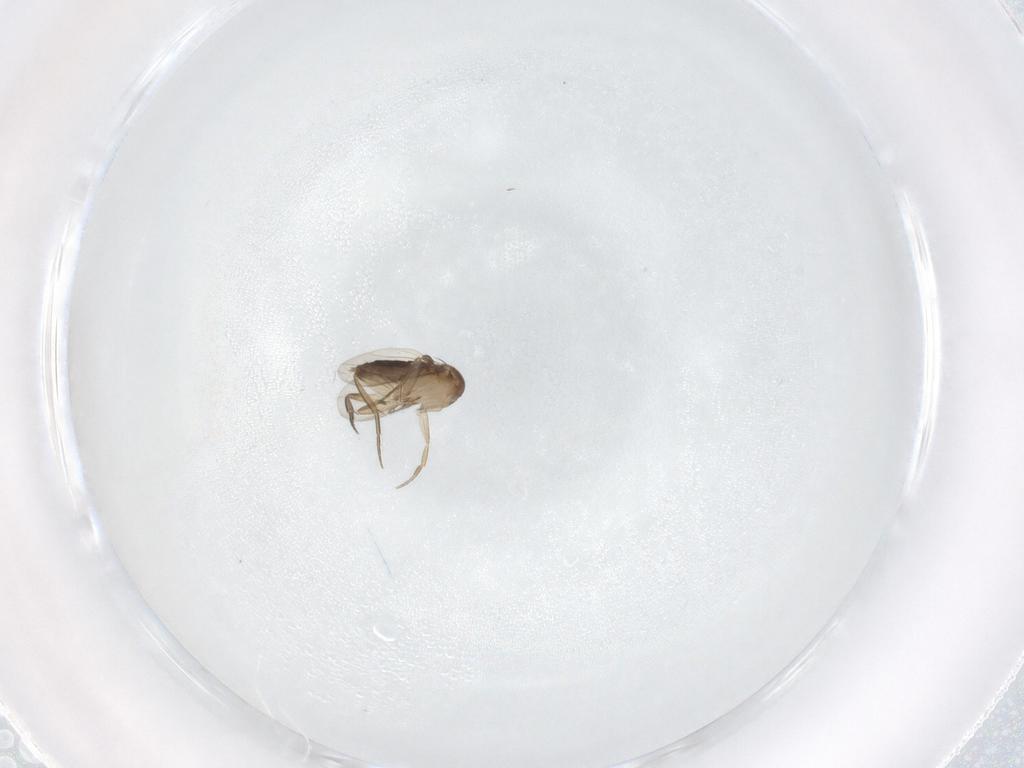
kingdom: Animalia
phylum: Arthropoda
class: Insecta
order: Diptera
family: Phoridae
